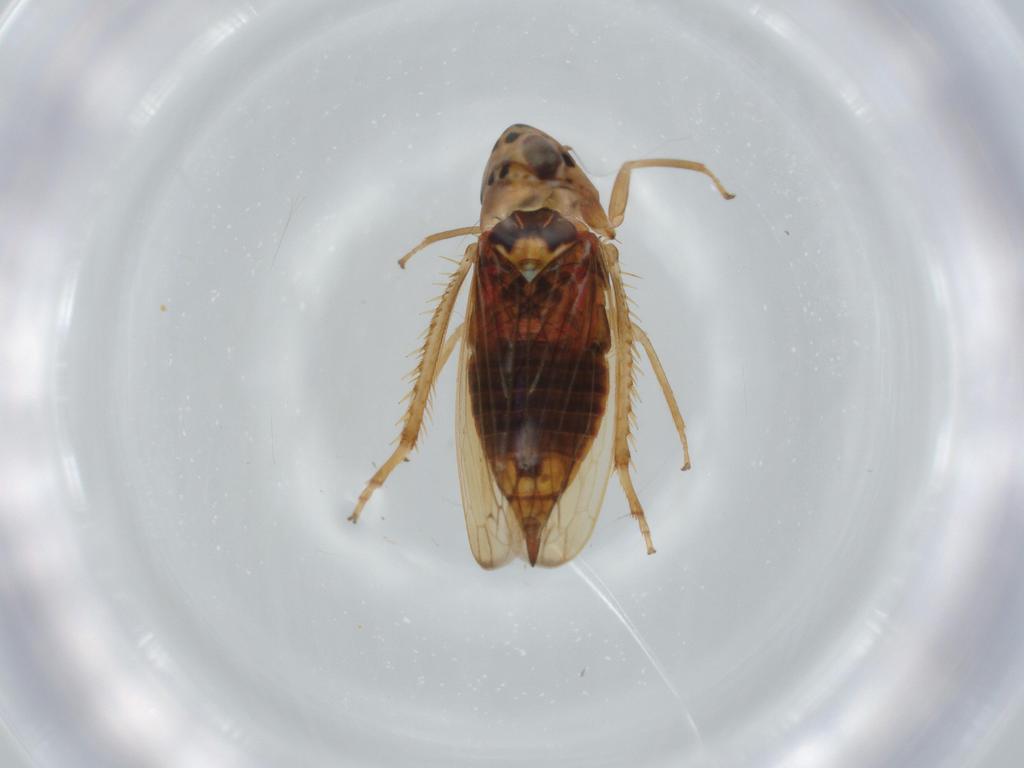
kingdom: Animalia
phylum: Arthropoda
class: Insecta
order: Hemiptera
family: Cicadellidae
